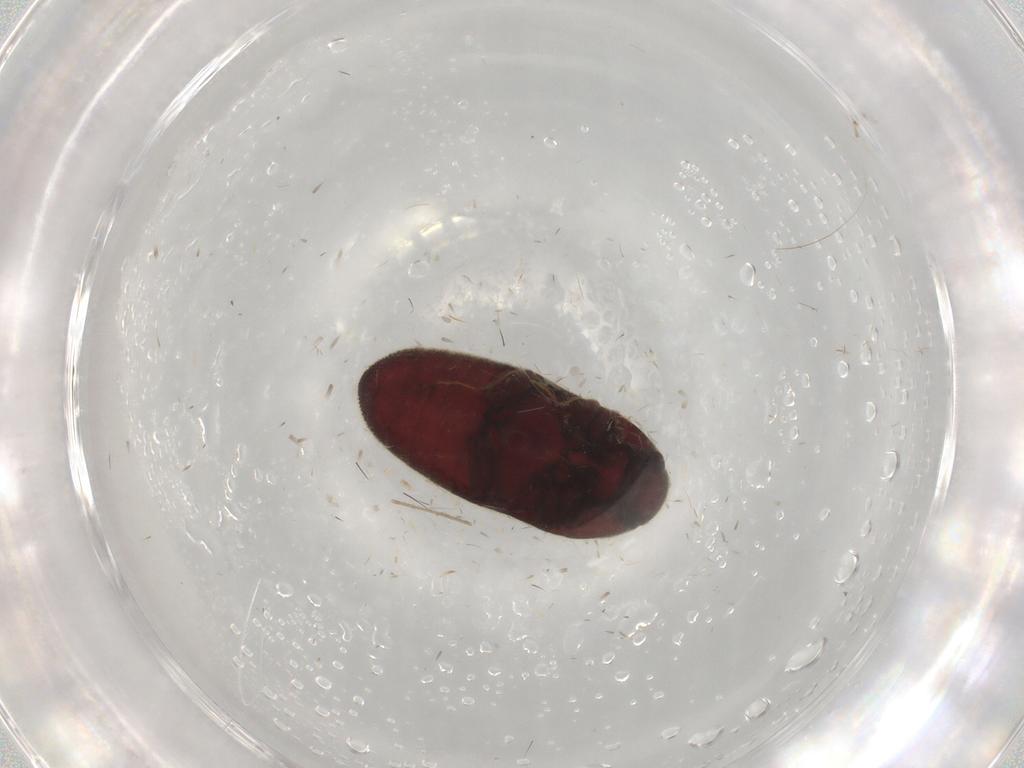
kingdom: Animalia
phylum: Arthropoda
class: Insecta
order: Coleoptera
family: Throscidae
